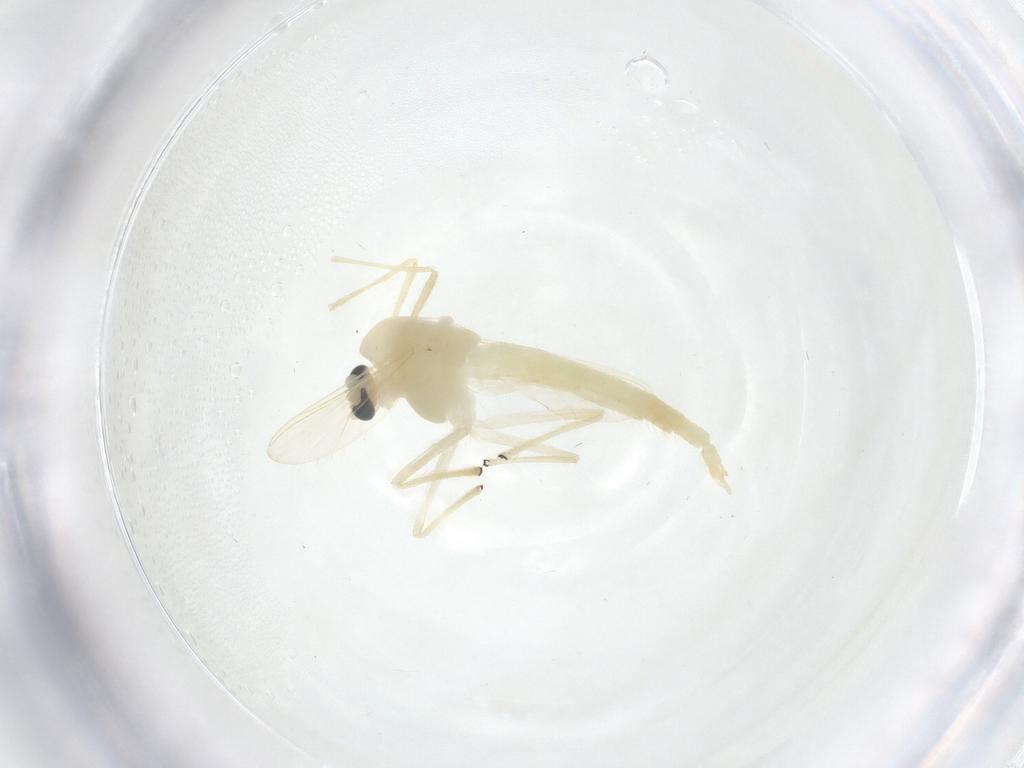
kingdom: Animalia
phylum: Arthropoda
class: Insecta
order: Diptera
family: Chironomidae
